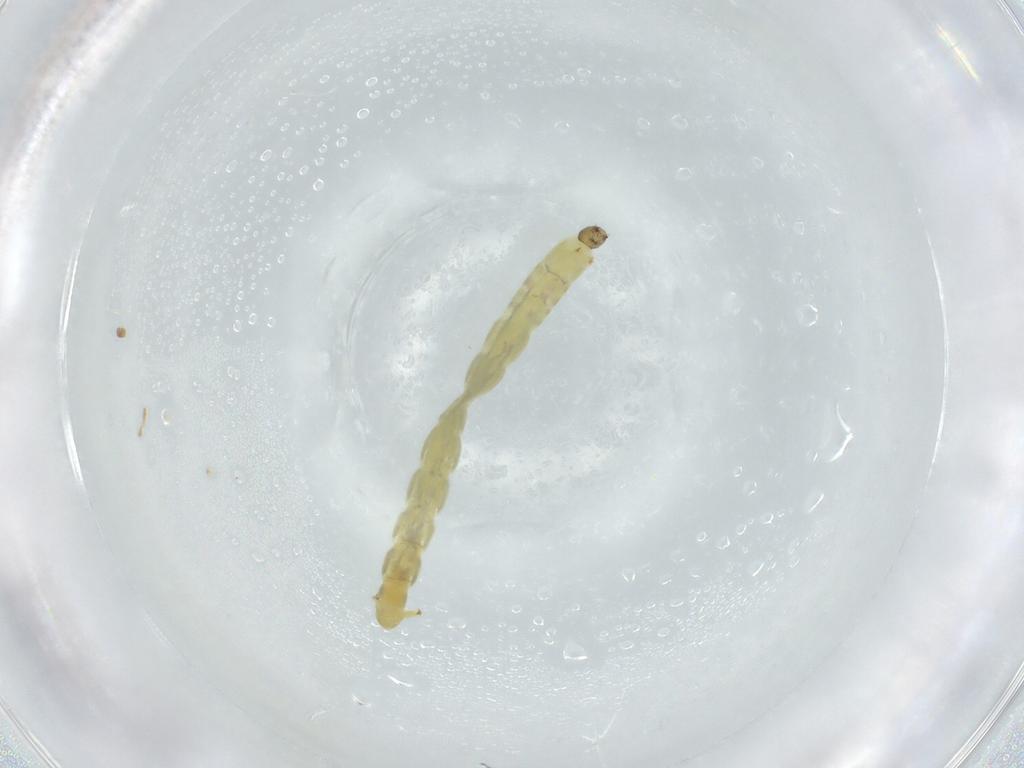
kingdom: Animalia
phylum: Arthropoda
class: Insecta
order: Diptera
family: Chironomidae
